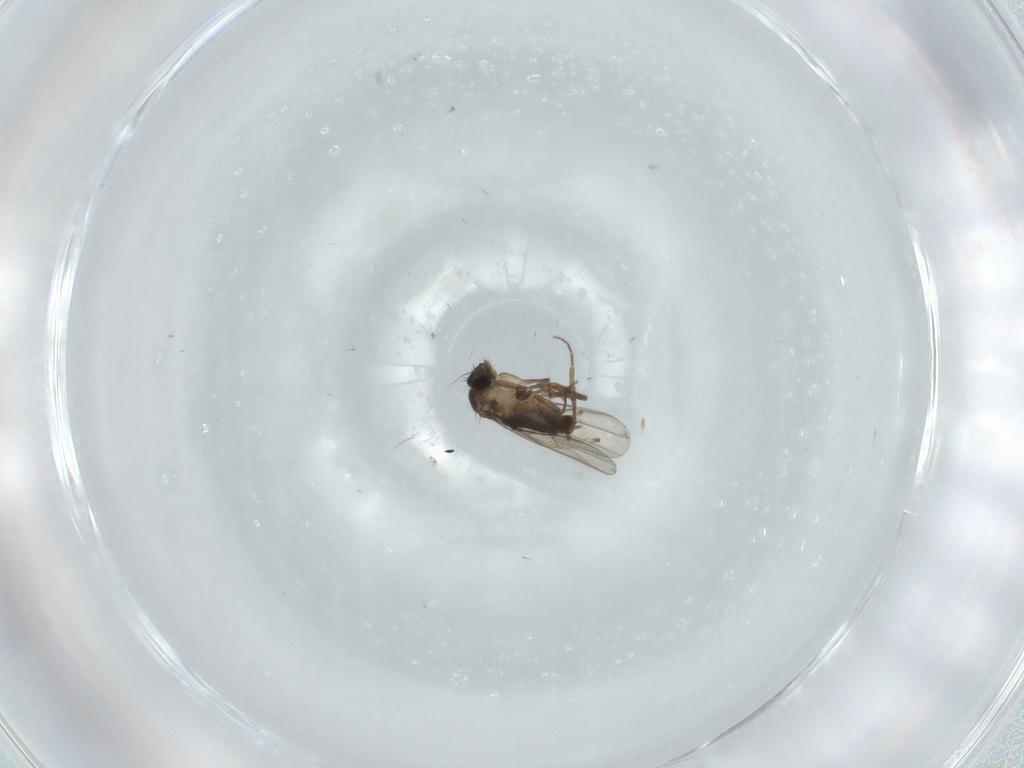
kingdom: Animalia
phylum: Arthropoda
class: Insecta
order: Diptera
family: Phoridae
